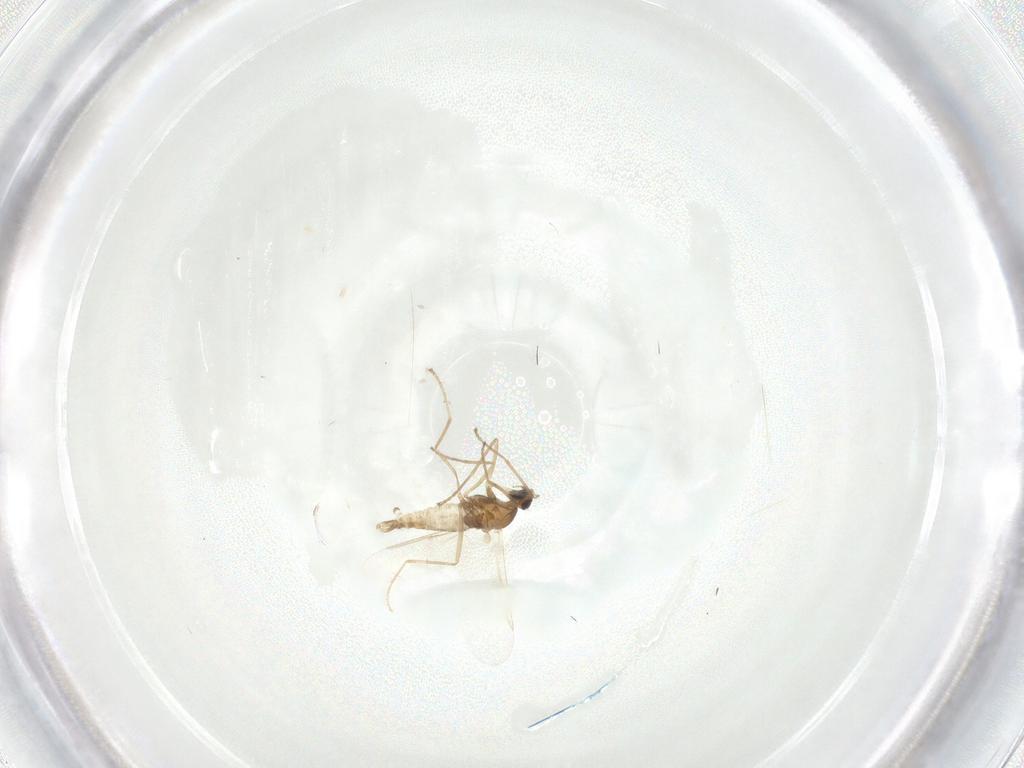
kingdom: Animalia
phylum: Arthropoda
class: Insecta
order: Diptera
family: Cecidomyiidae
